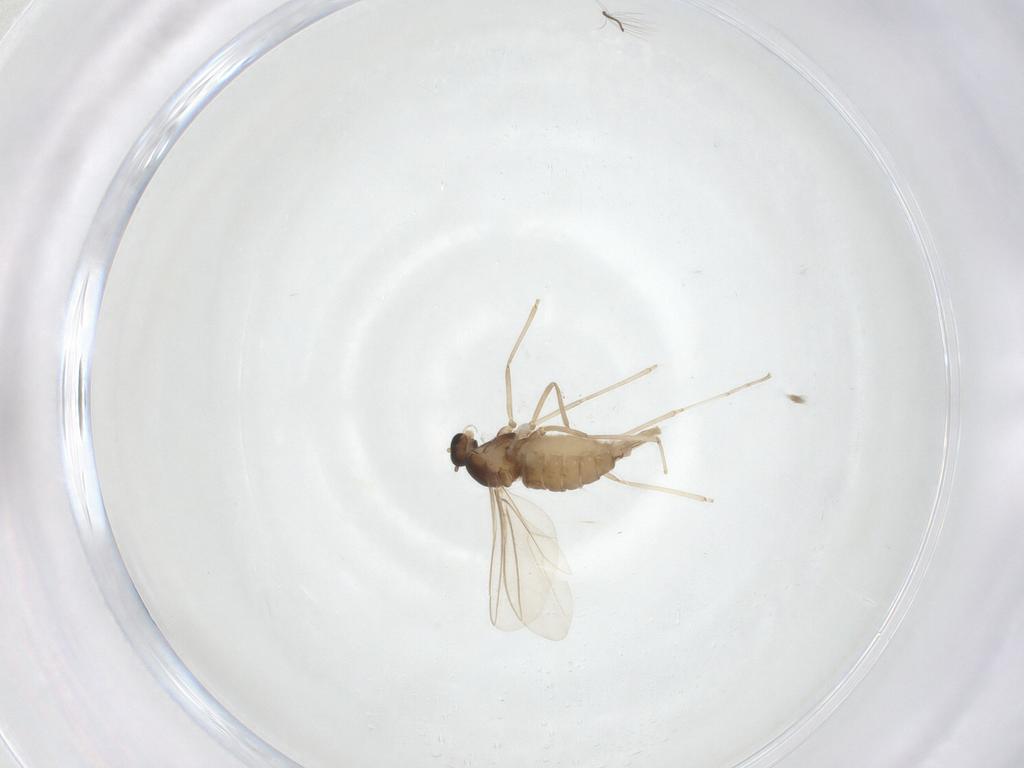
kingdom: Animalia
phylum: Arthropoda
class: Insecta
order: Diptera
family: Cecidomyiidae
